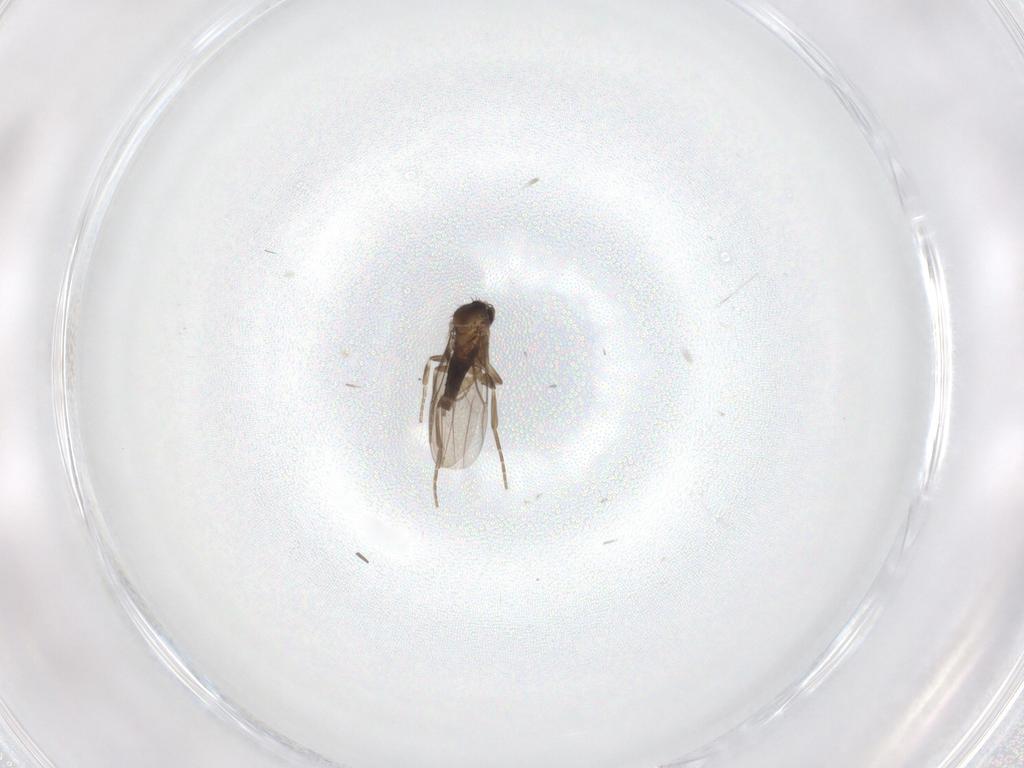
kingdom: Animalia
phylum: Arthropoda
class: Insecta
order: Diptera
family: Phoridae
